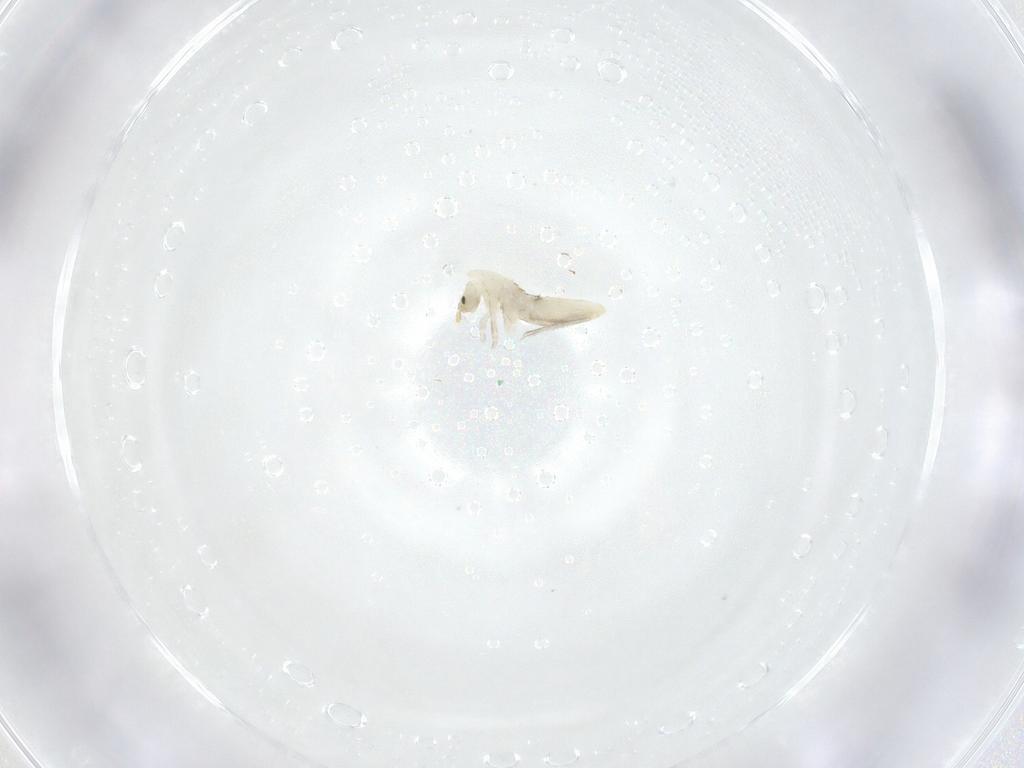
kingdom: Animalia
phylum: Arthropoda
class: Collembola
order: Entomobryomorpha
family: Entomobryidae
